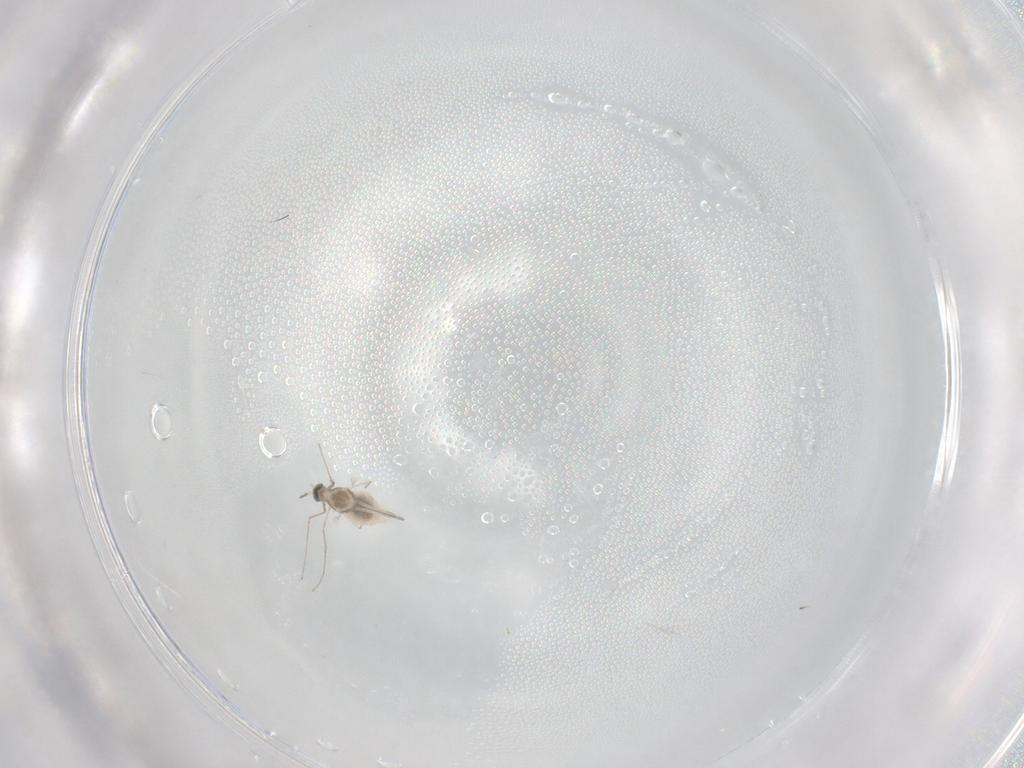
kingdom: Animalia
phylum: Arthropoda
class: Insecta
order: Diptera
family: Cecidomyiidae
